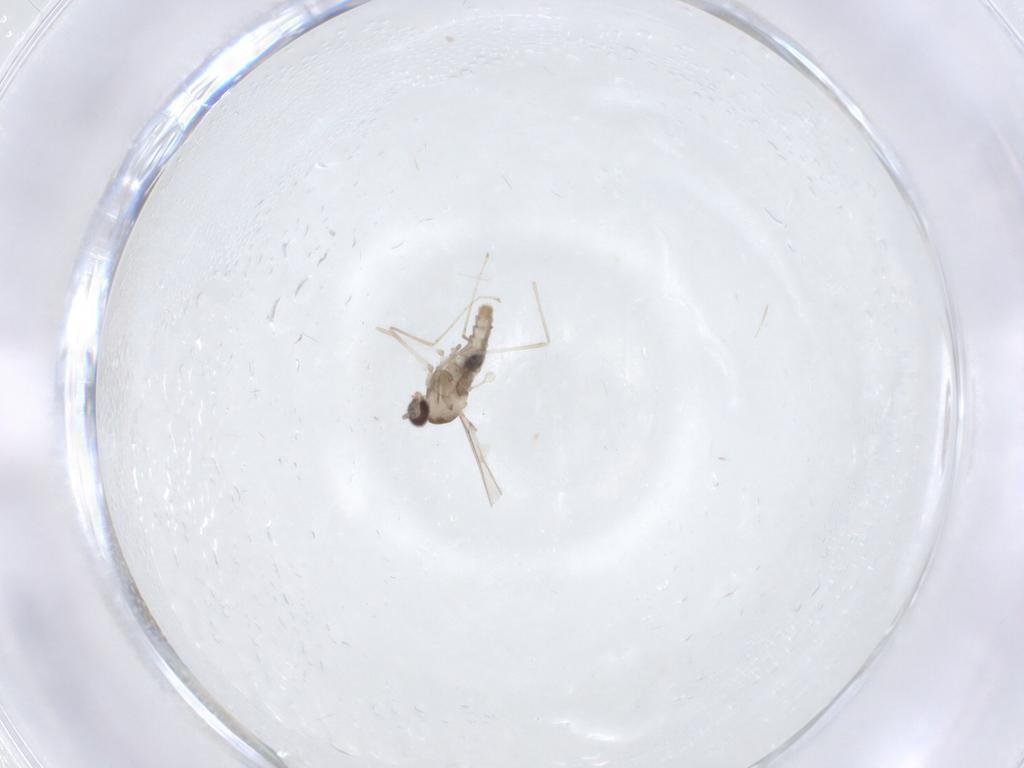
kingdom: Animalia
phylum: Arthropoda
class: Insecta
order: Diptera
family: Cecidomyiidae
